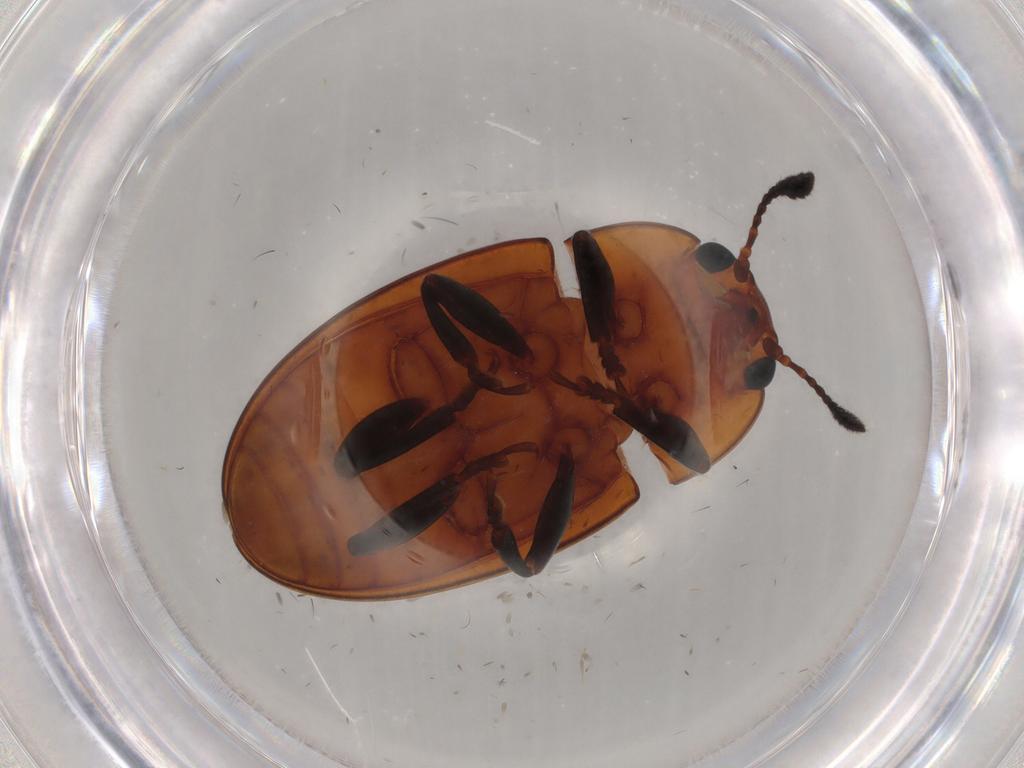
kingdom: Animalia
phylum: Arthropoda
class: Insecta
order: Coleoptera
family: Erotylidae
